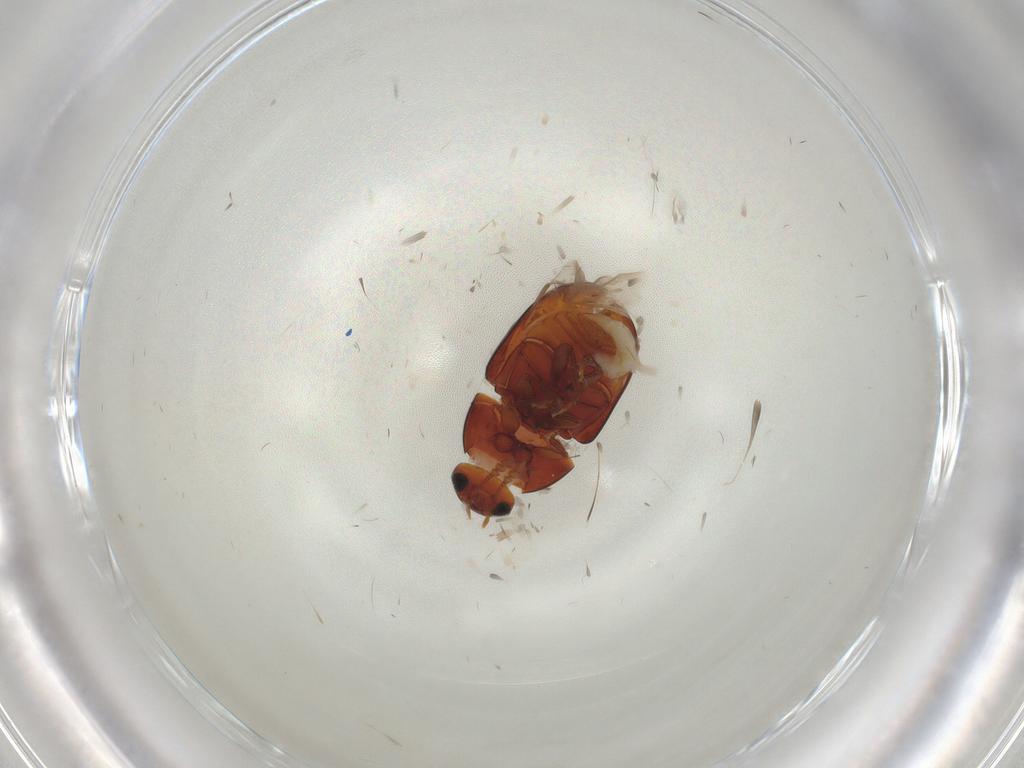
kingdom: Animalia
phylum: Arthropoda
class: Insecta
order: Coleoptera
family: Phalacridae
